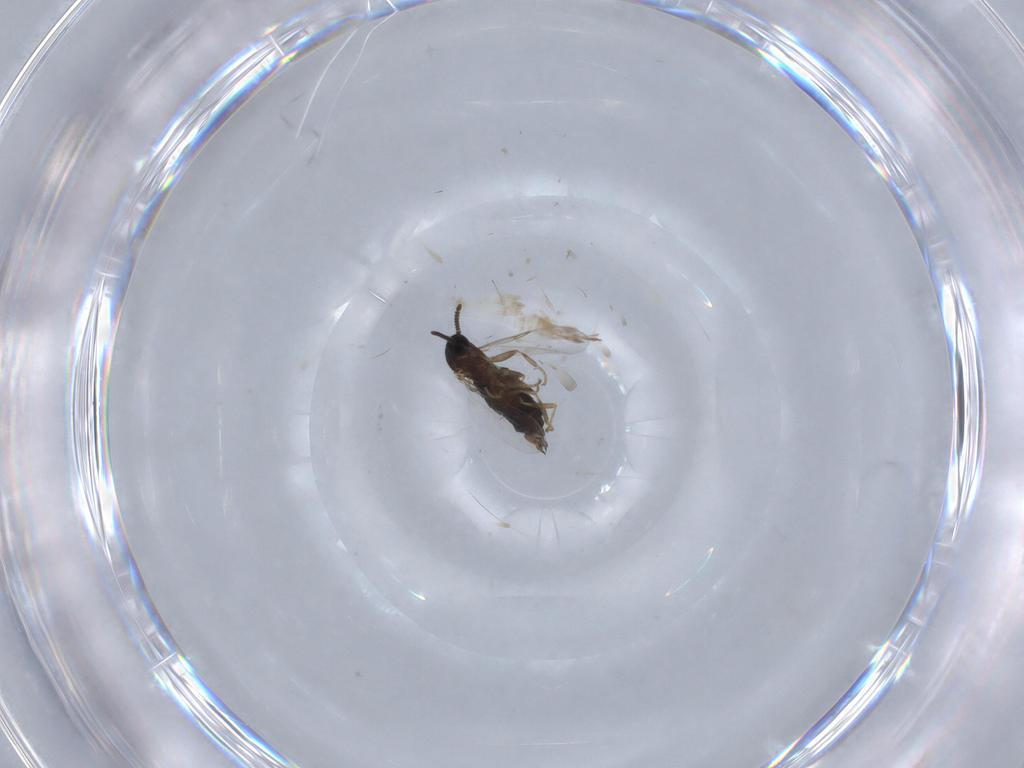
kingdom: Animalia
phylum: Arthropoda
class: Insecta
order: Diptera
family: Scatopsidae
